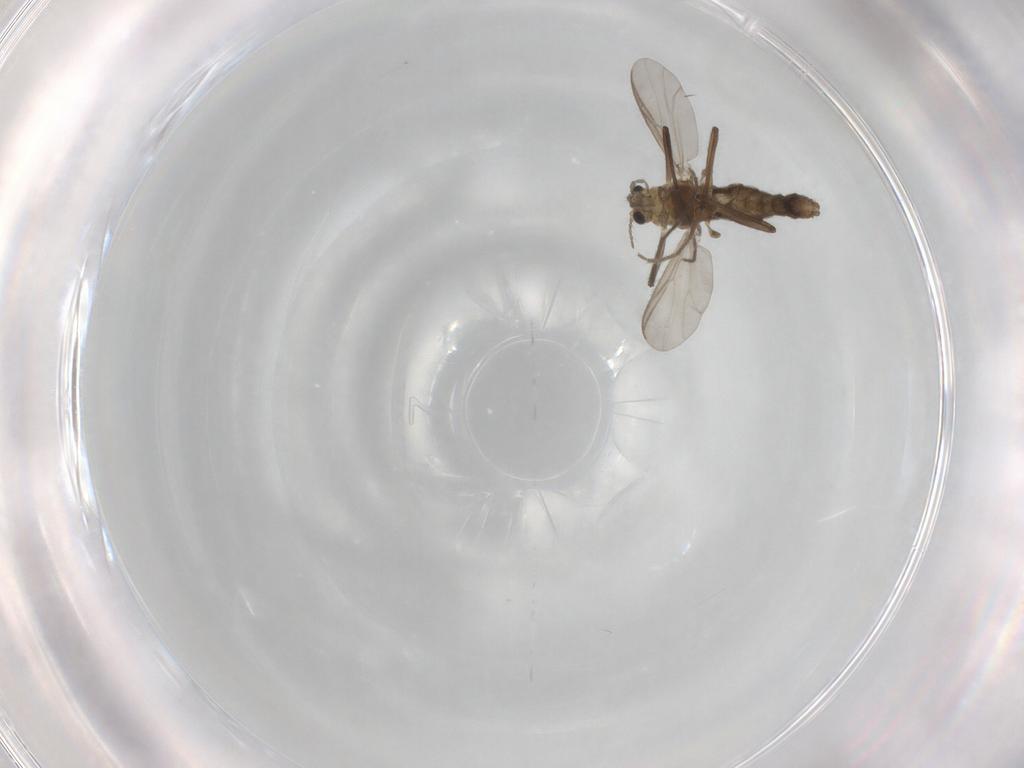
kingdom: Animalia
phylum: Arthropoda
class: Insecta
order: Diptera
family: Chironomidae
